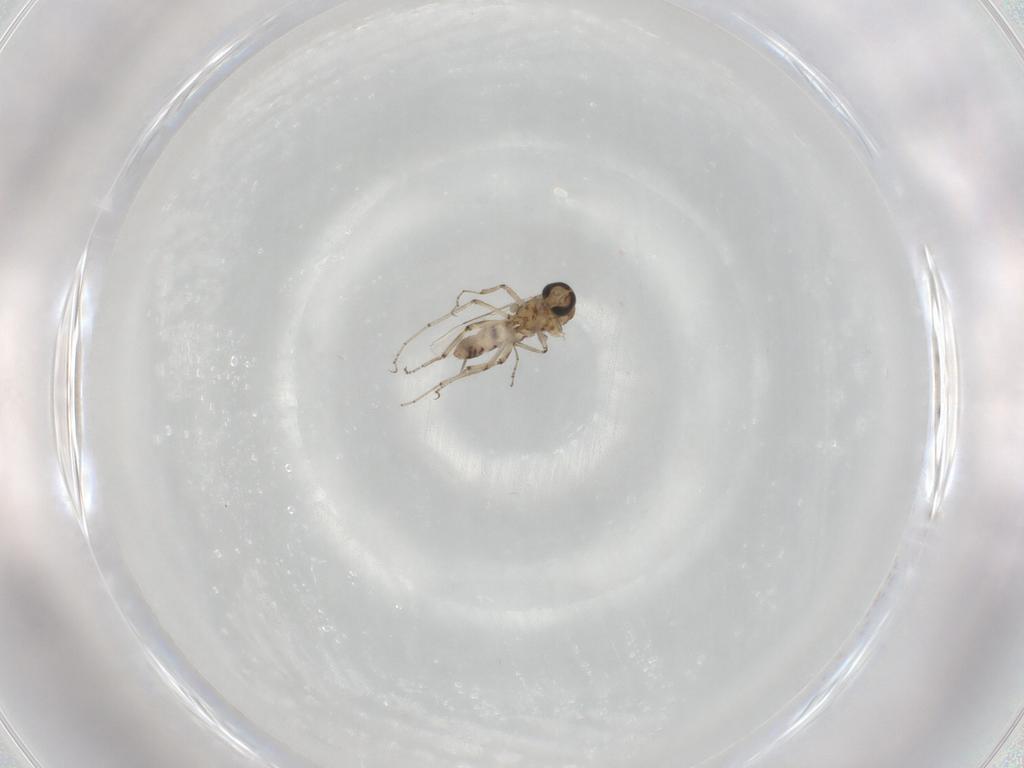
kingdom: Animalia
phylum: Arthropoda
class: Insecta
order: Diptera
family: Ceratopogonidae
